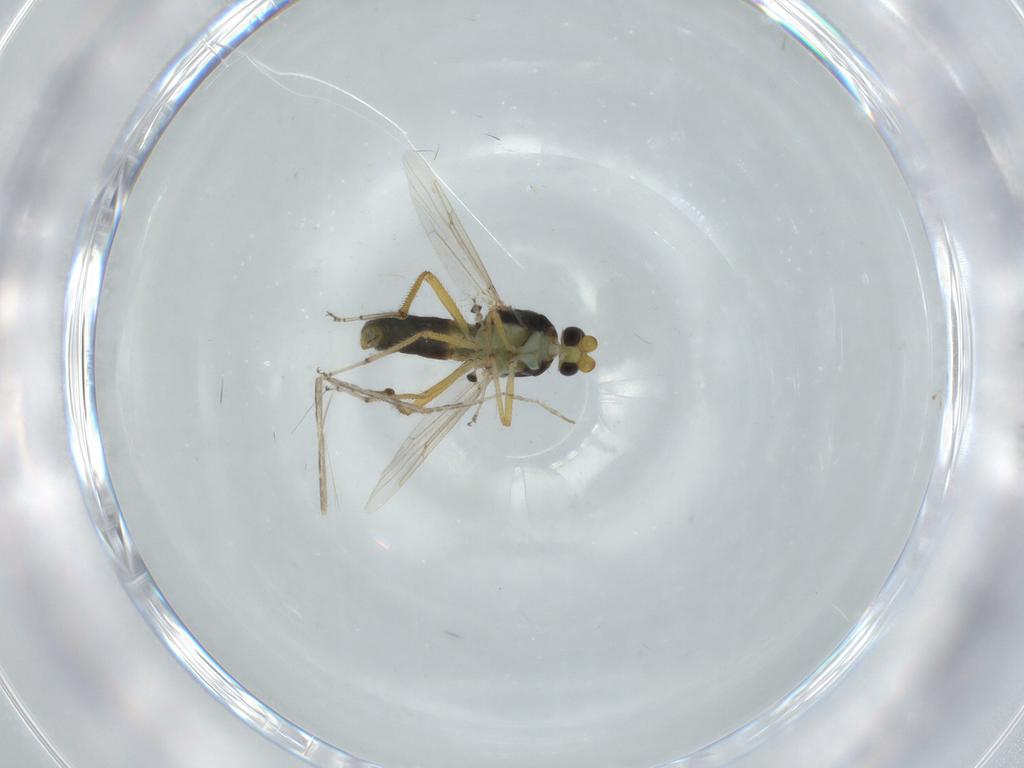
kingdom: Animalia
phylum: Arthropoda
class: Insecta
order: Diptera
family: Ceratopogonidae
